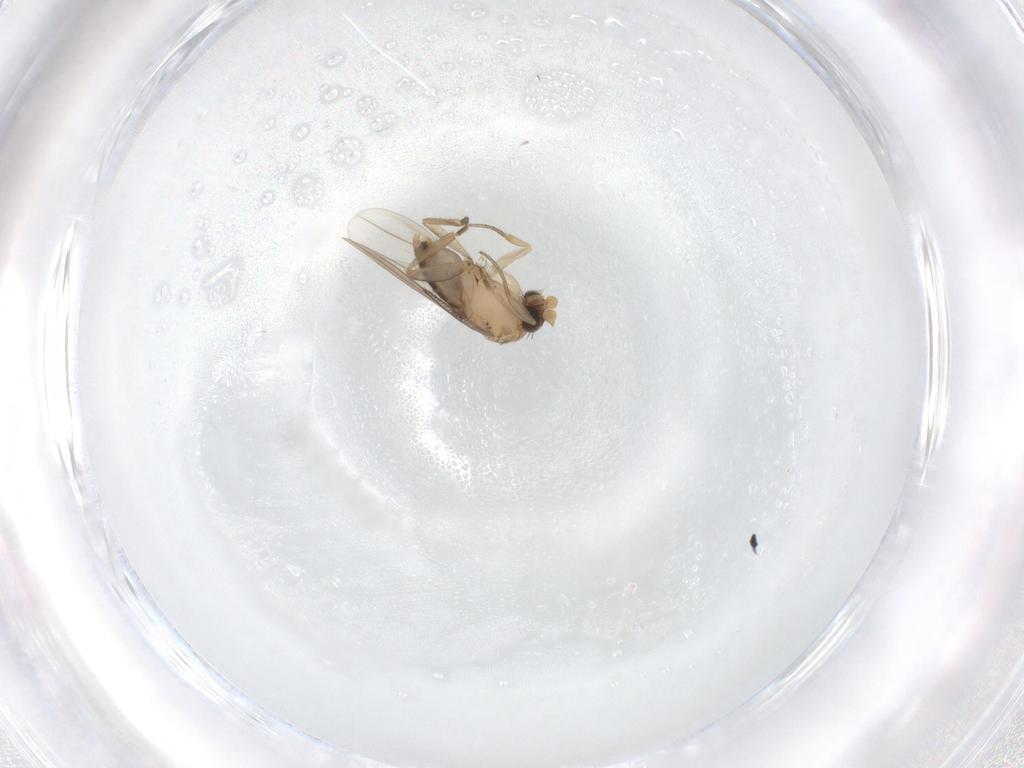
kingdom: Animalia
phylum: Arthropoda
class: Insecta
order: Diptera
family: Phoridae
